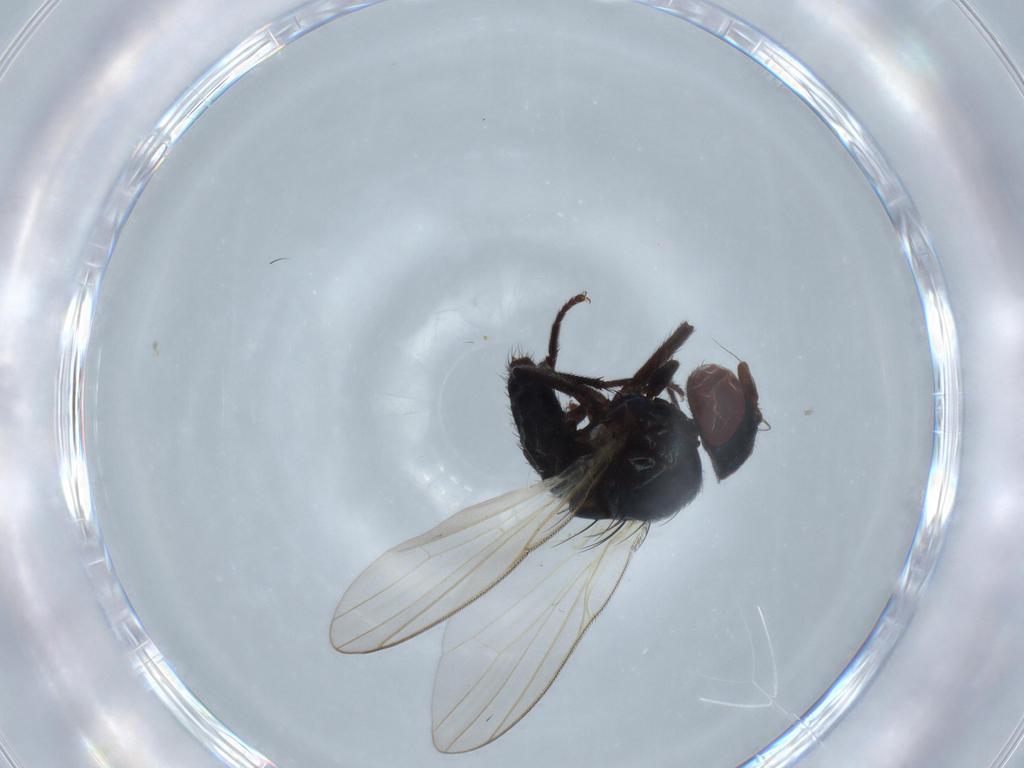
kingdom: Animalia
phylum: Arthropoda
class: Insecta
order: Diptera
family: Lonchaeidae
